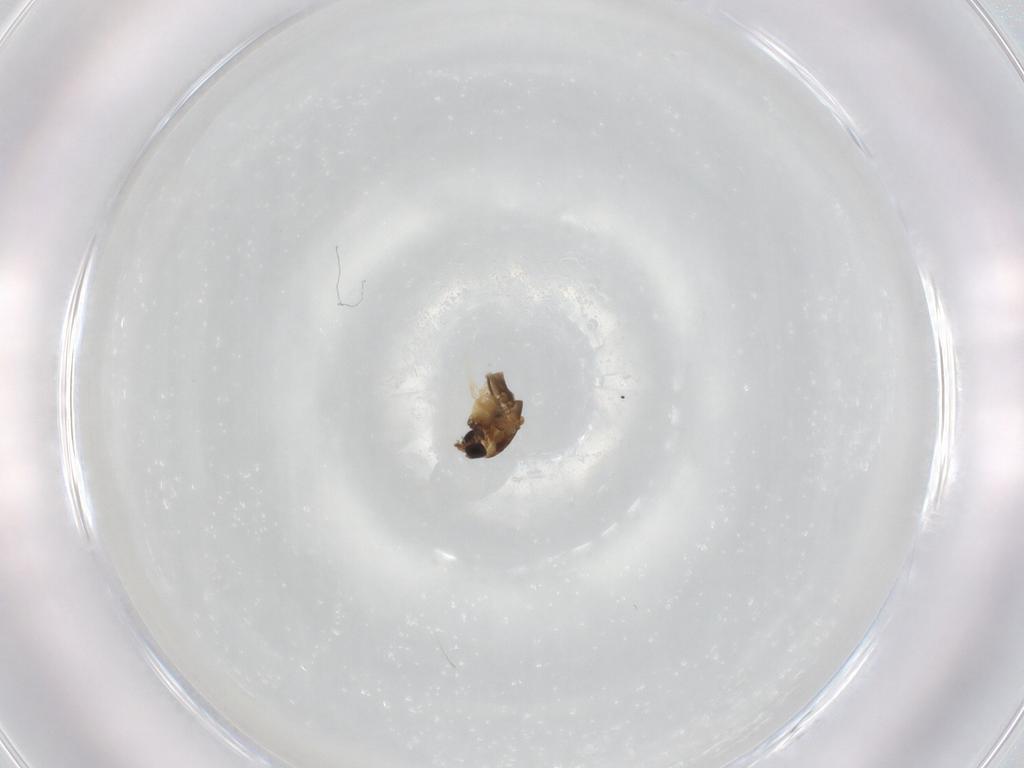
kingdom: Animalia
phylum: Arthropoda
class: Insecta
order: Diptera
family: Chironomidae
